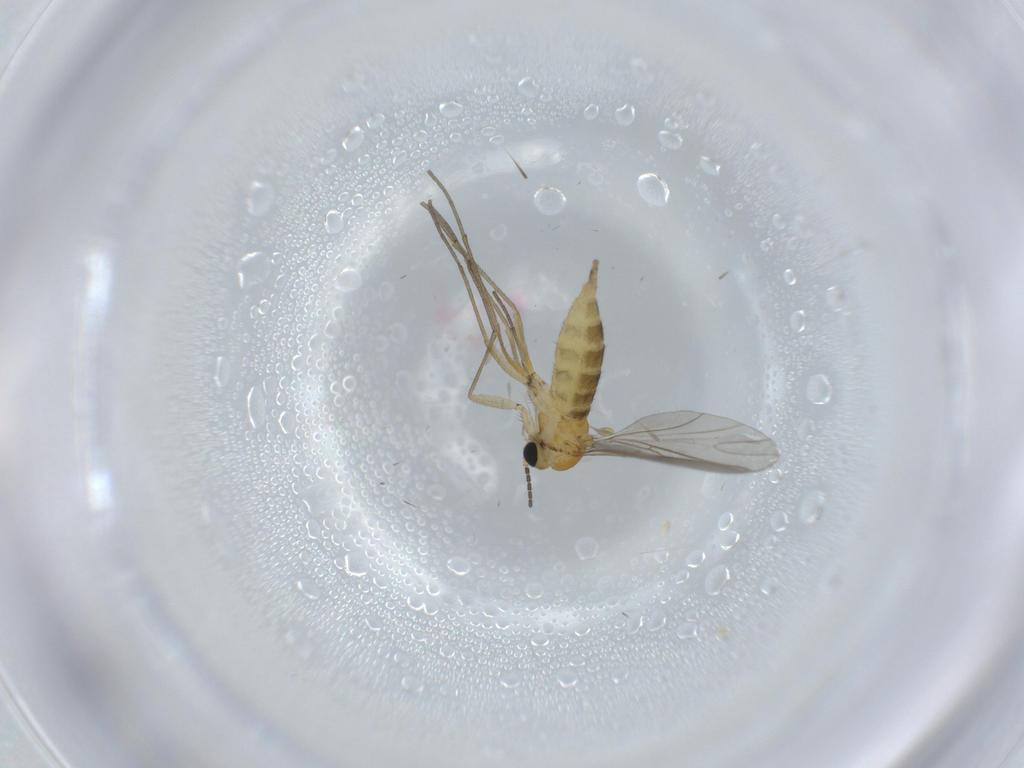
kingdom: Animalia
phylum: Arthropoda
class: Insecta
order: Diptera
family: Sciaridae
